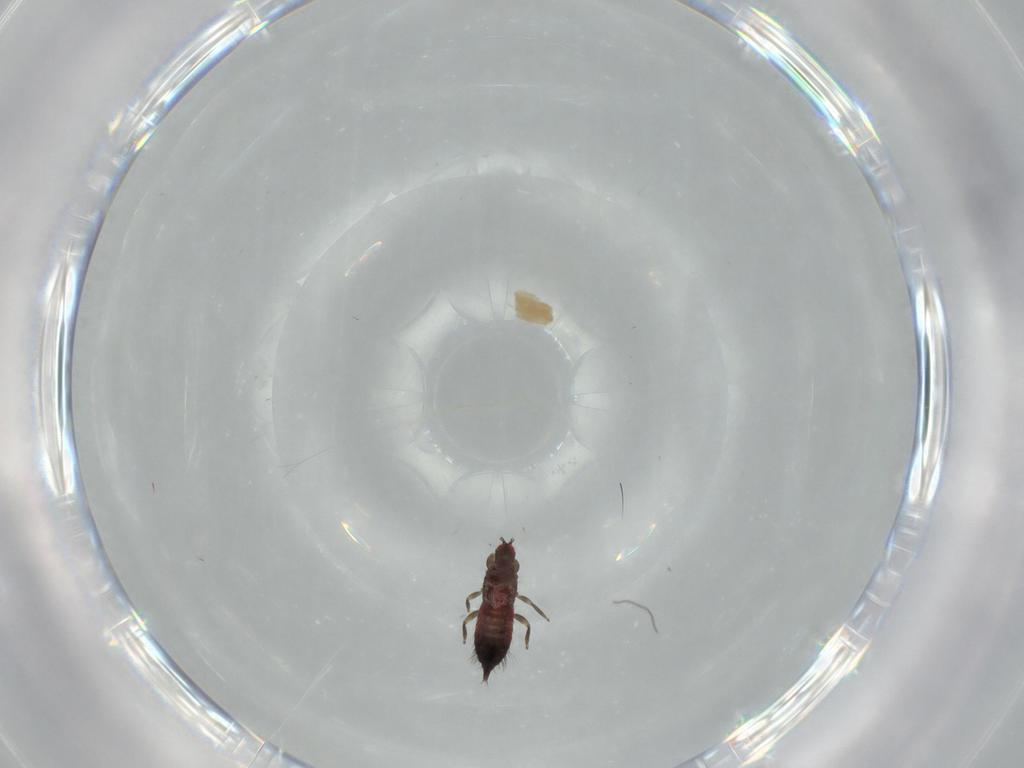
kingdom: Animalia
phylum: Arthropoda
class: Insecta
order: Thysanoptera
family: Phlaeothripidae
